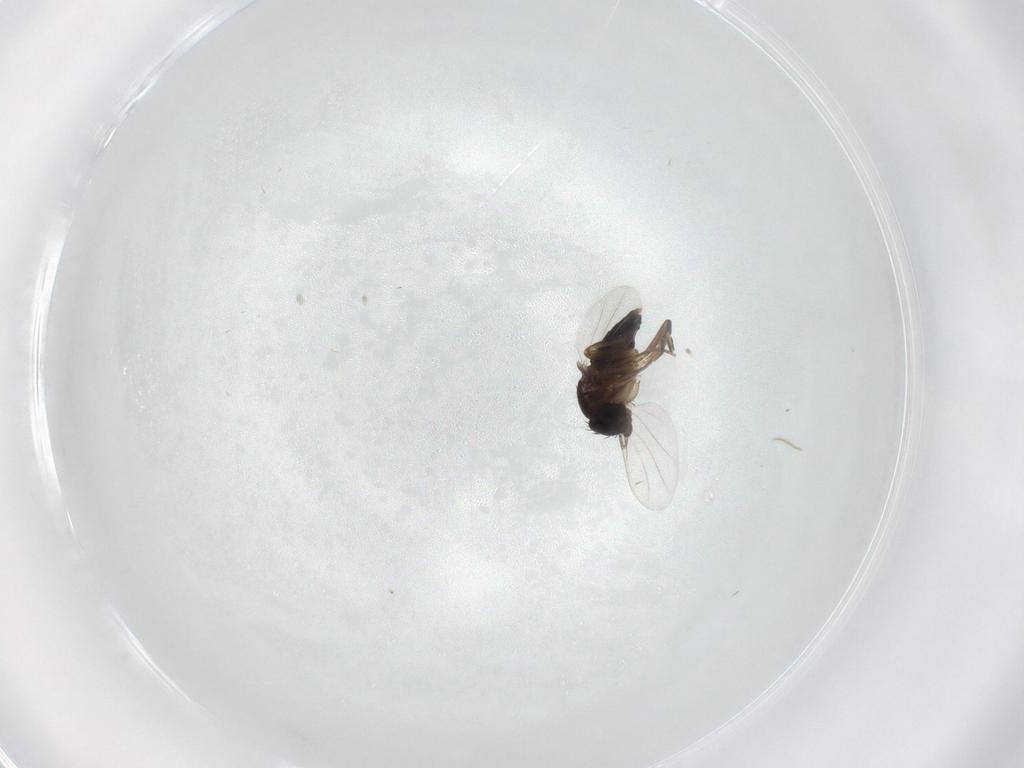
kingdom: Animalia
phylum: Arthropoda
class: Insecta
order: Diptera
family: Phoridae
